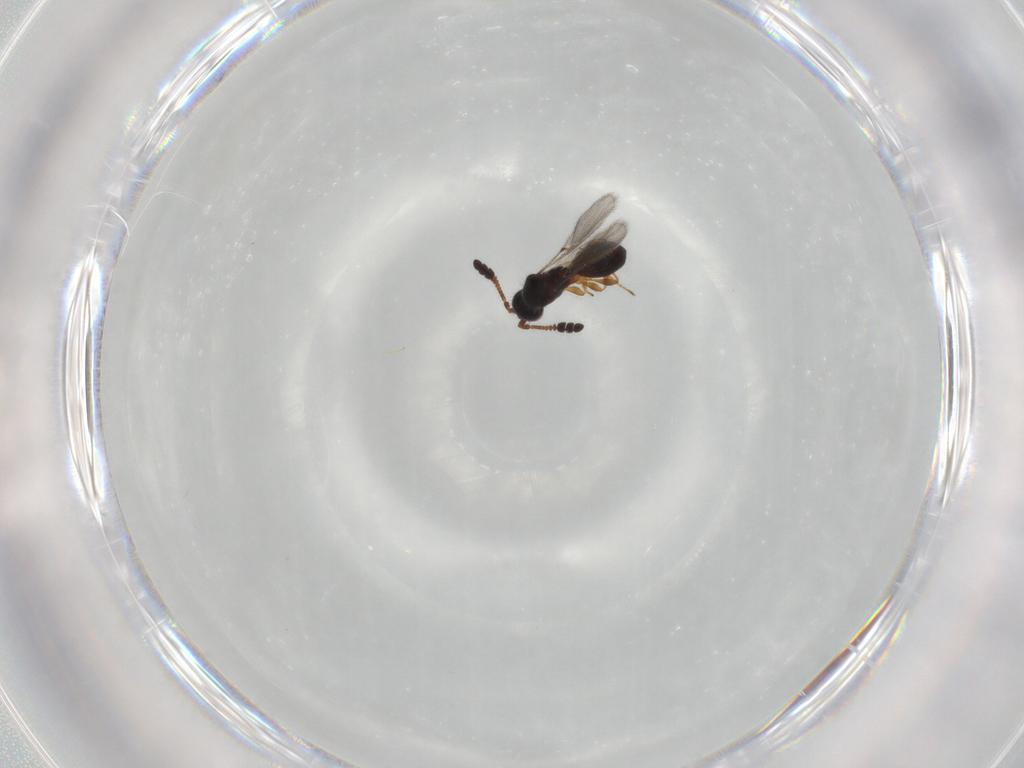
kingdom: Animalia
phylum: Arthropoda
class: Insecta
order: Hymenoptera
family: Diapriidae
